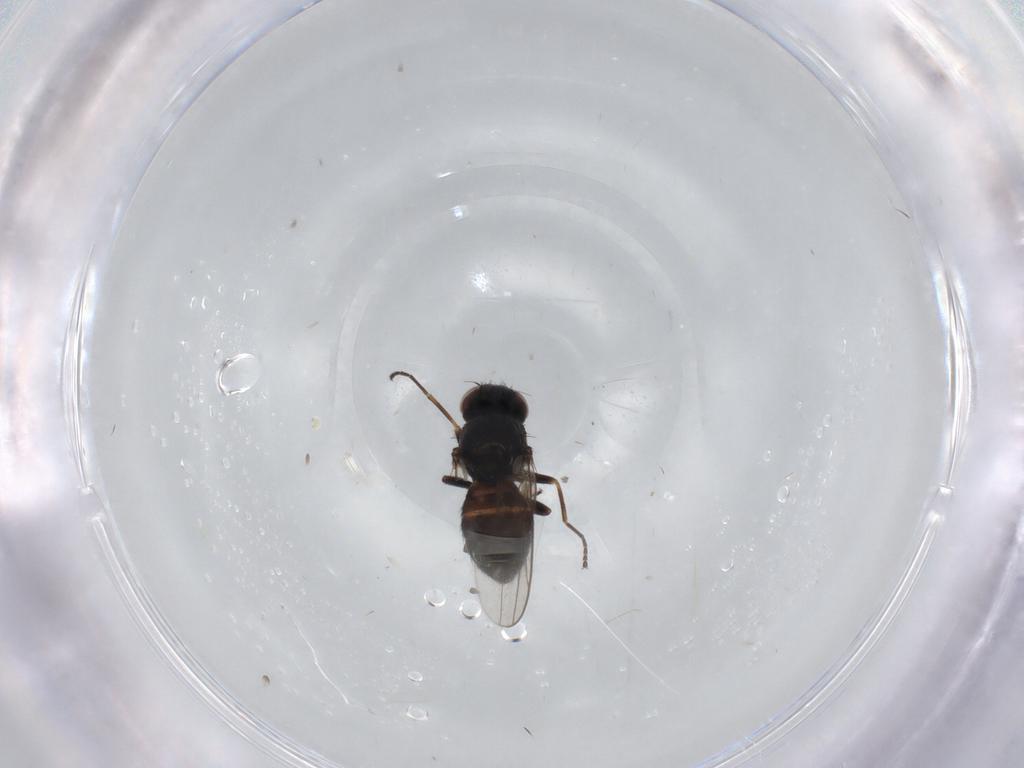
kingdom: Animalia
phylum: Arthropoda
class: Insecta
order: Diptera
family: Chloropidae
